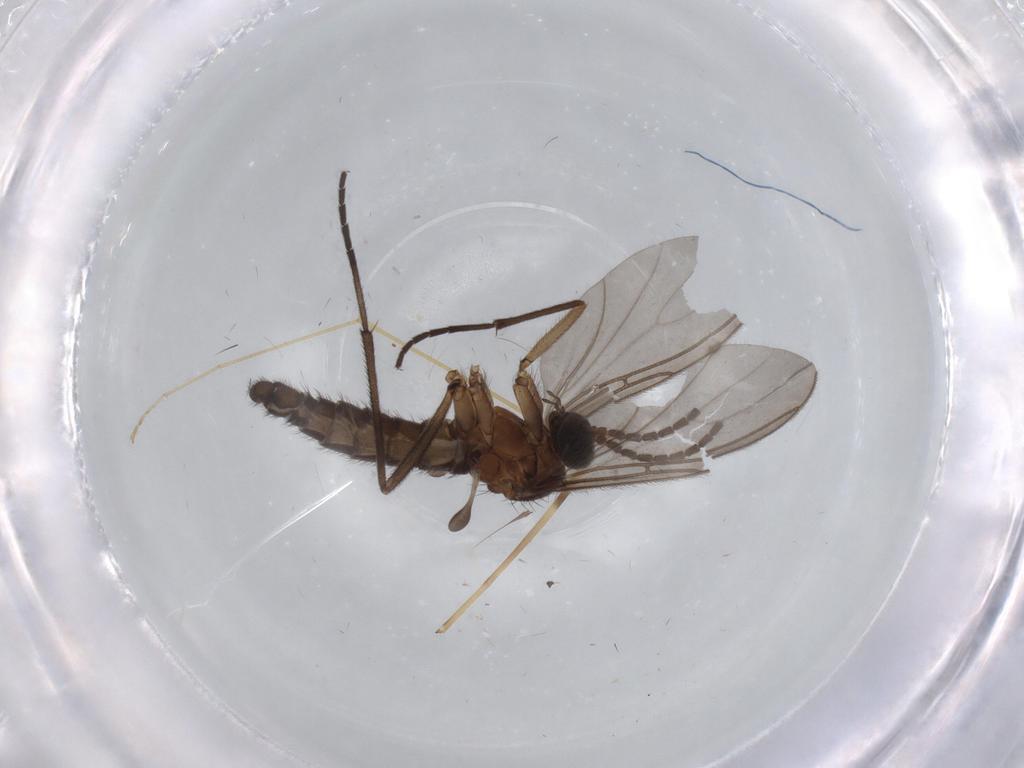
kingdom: Animalia
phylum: Arthropoda
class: Insecta
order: Diptera
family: Sciaridae
